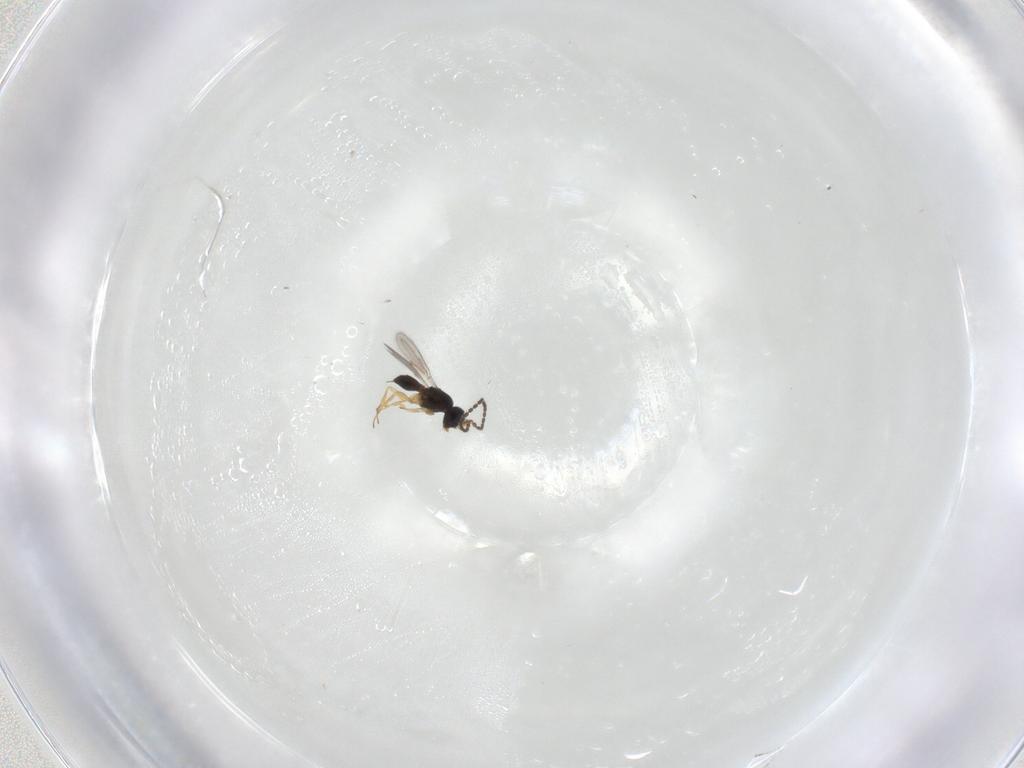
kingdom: Animalia
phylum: Arthropoda
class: Insecta
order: Hymenoptera
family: Scelionidae
